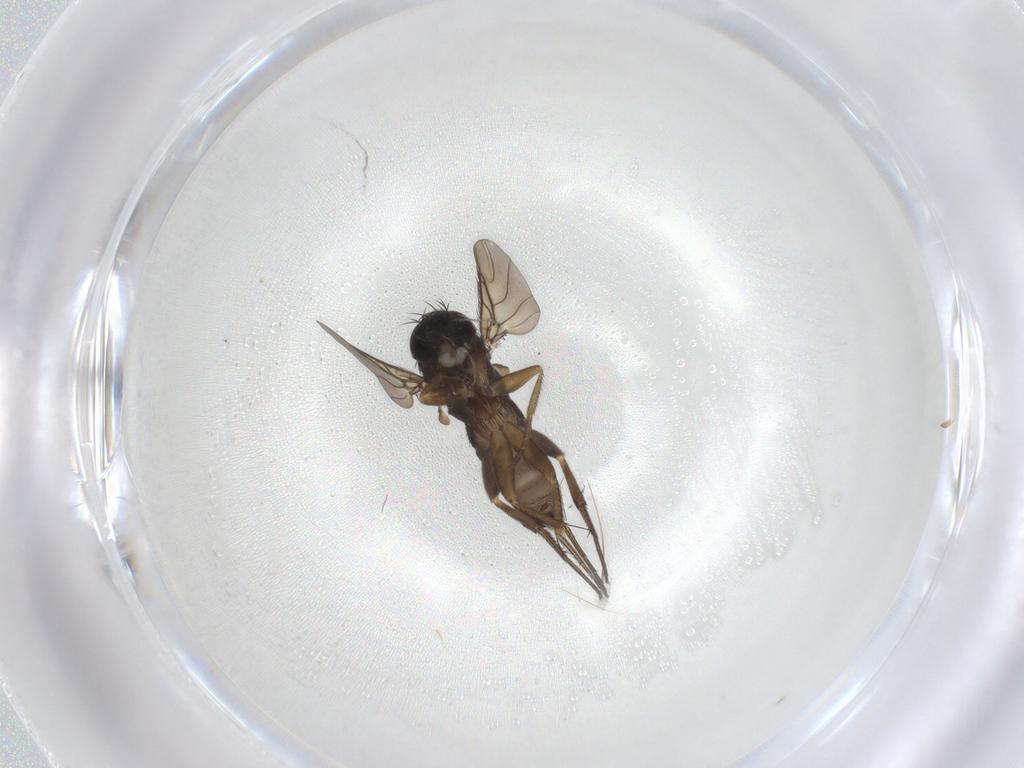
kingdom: Animalia
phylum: Arthropoda
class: Insecta
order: Diptera
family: Phoridae
